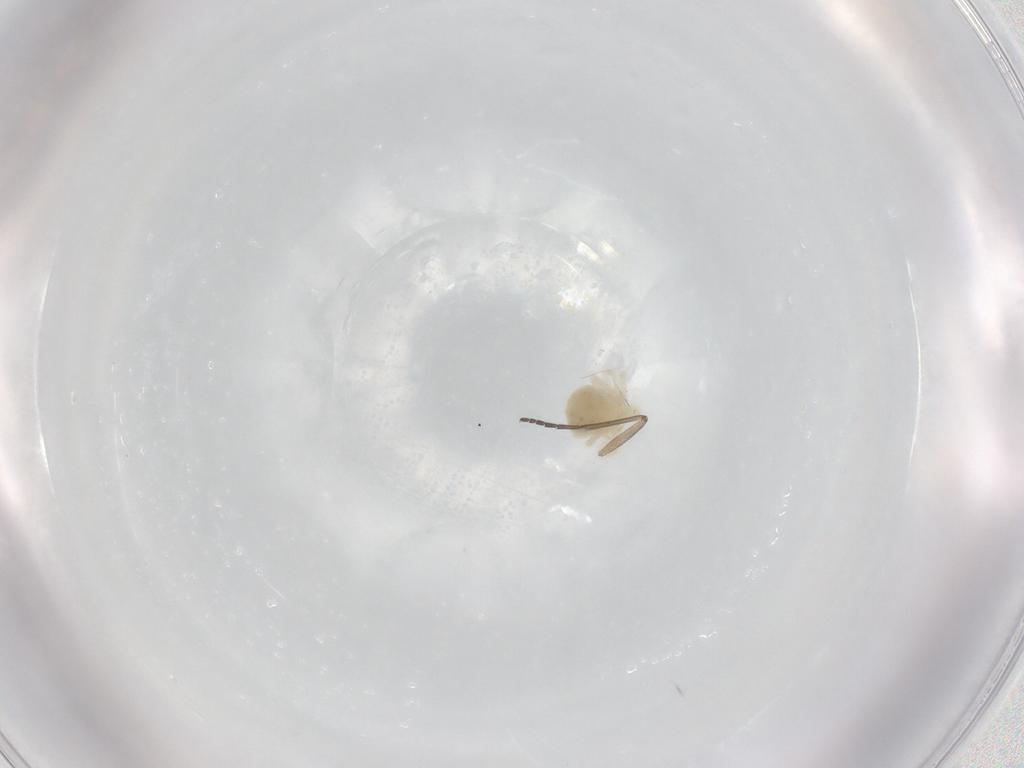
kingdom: Animalia
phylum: Arthropoda
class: Arachnida
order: Trombidiformes
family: Anystidae
